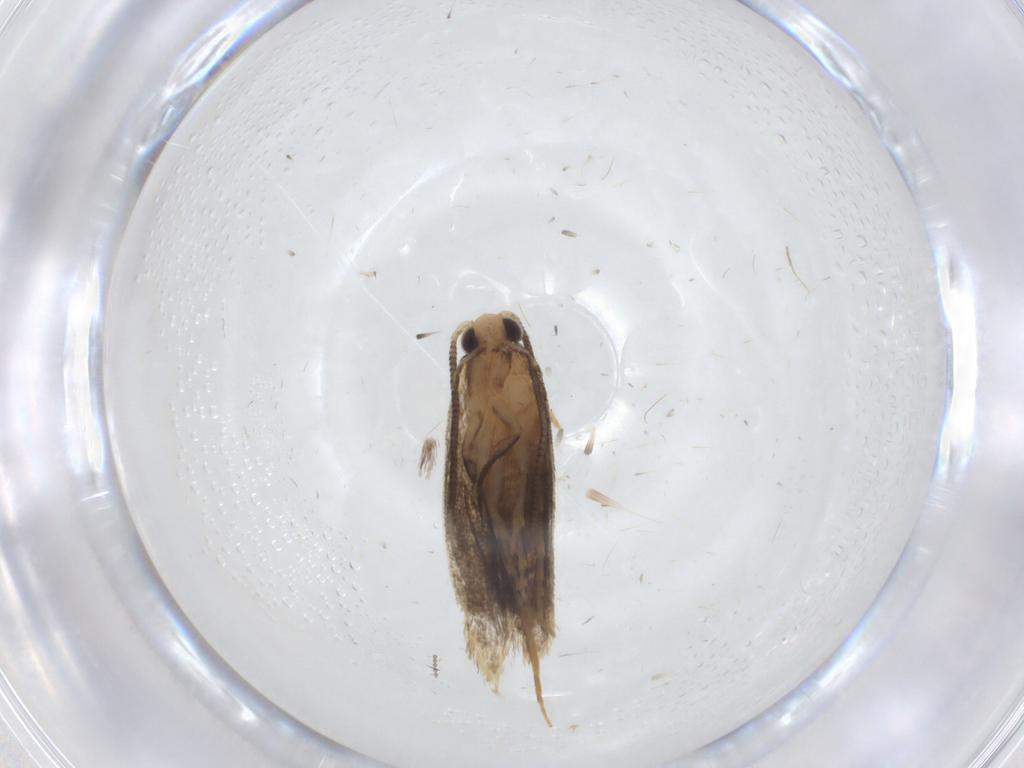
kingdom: Animalia
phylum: Arthropoda
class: Insecta
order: Lepidoptera
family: Tineidae
